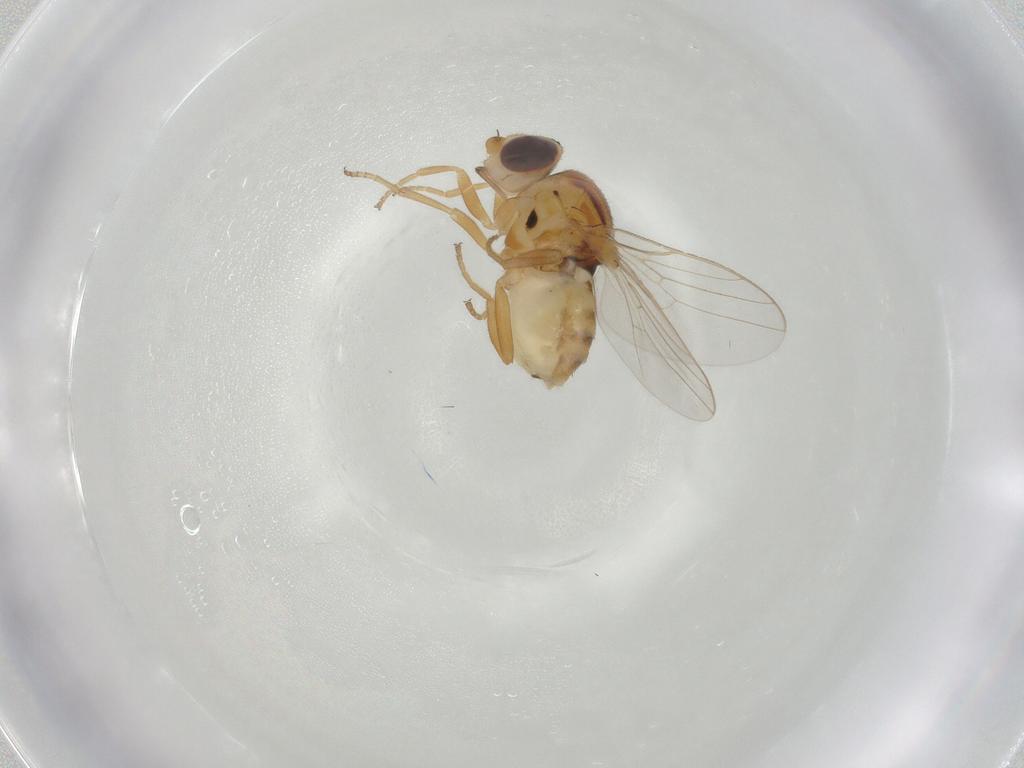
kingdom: Animalia
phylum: Arthropoda
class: Insecta
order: Diptera
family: Chloropidae
